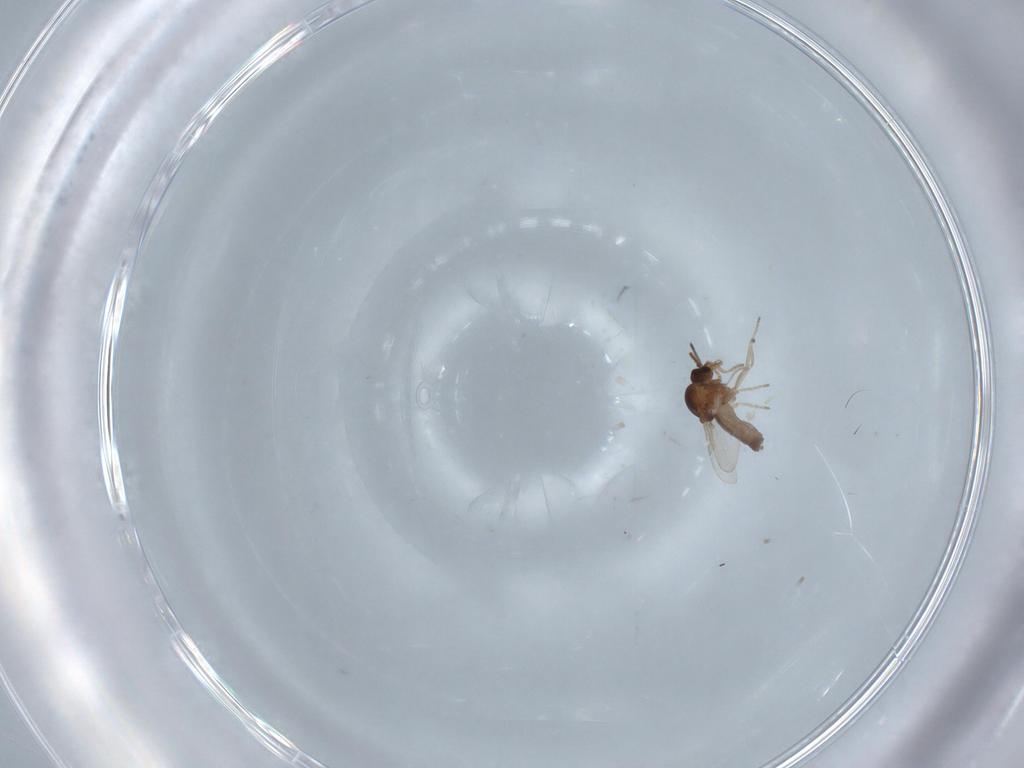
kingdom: Animalia
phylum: Arthropoda
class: Insecta
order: Diptera
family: Ceratopogonidae
